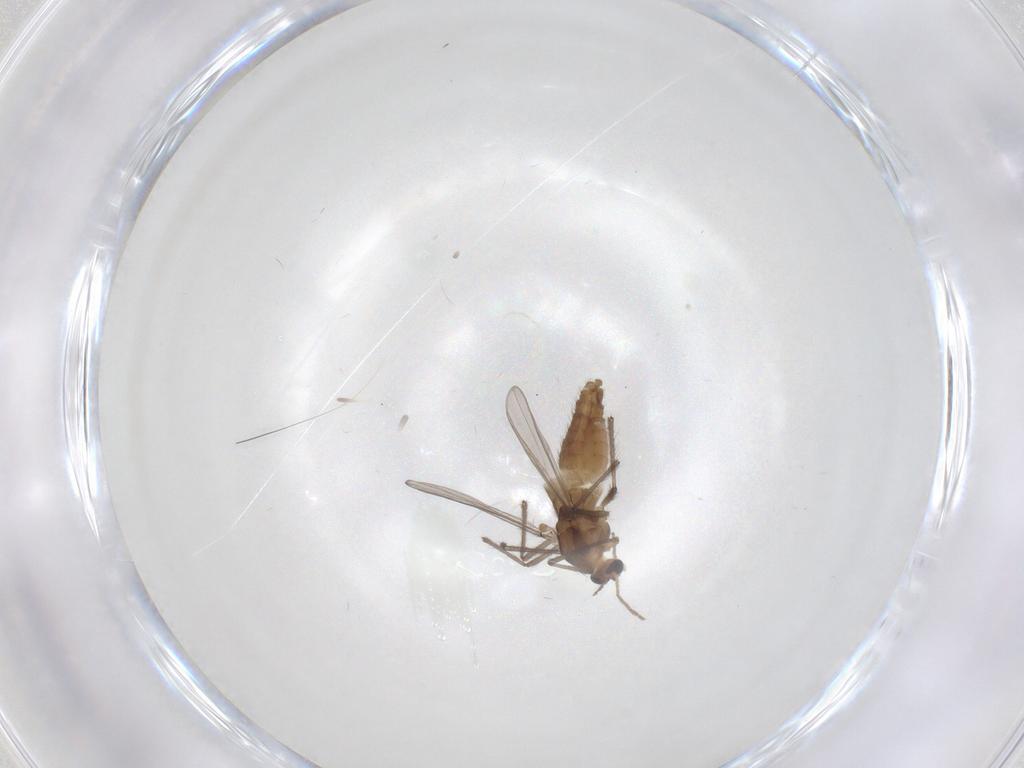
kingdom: Animalia
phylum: Arthropoda
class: Insecta
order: Diptera
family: Chironomidae
